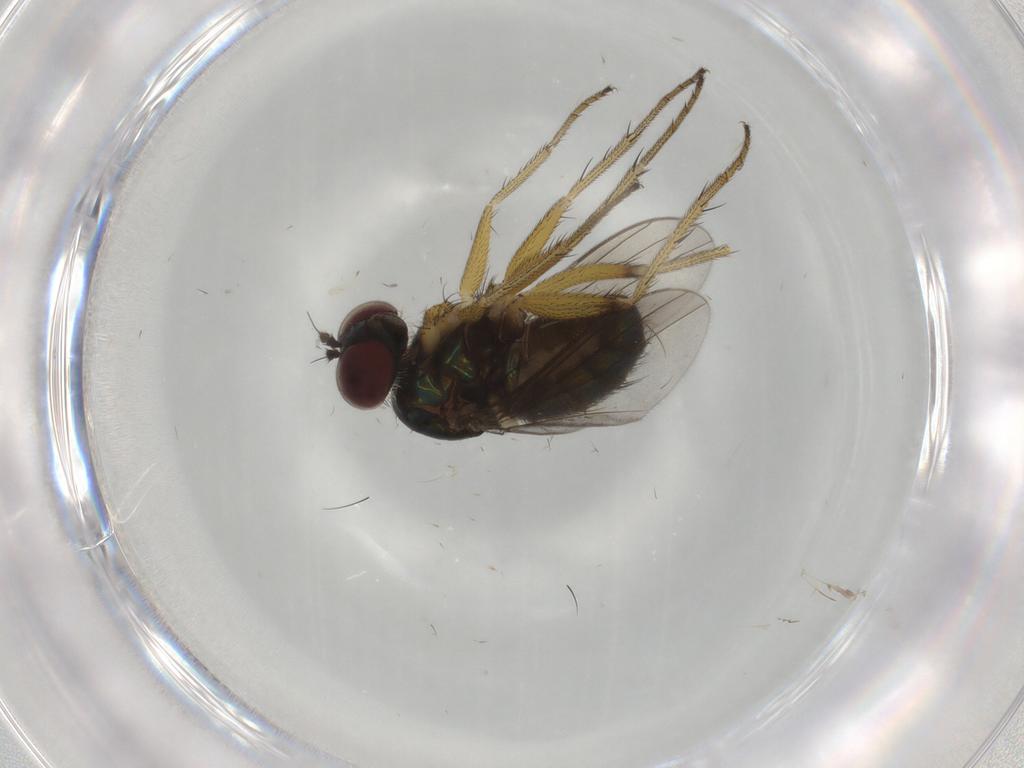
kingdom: Animalia
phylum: Arthropoda
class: Insecta
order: Diptera
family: Dolichopodidae
